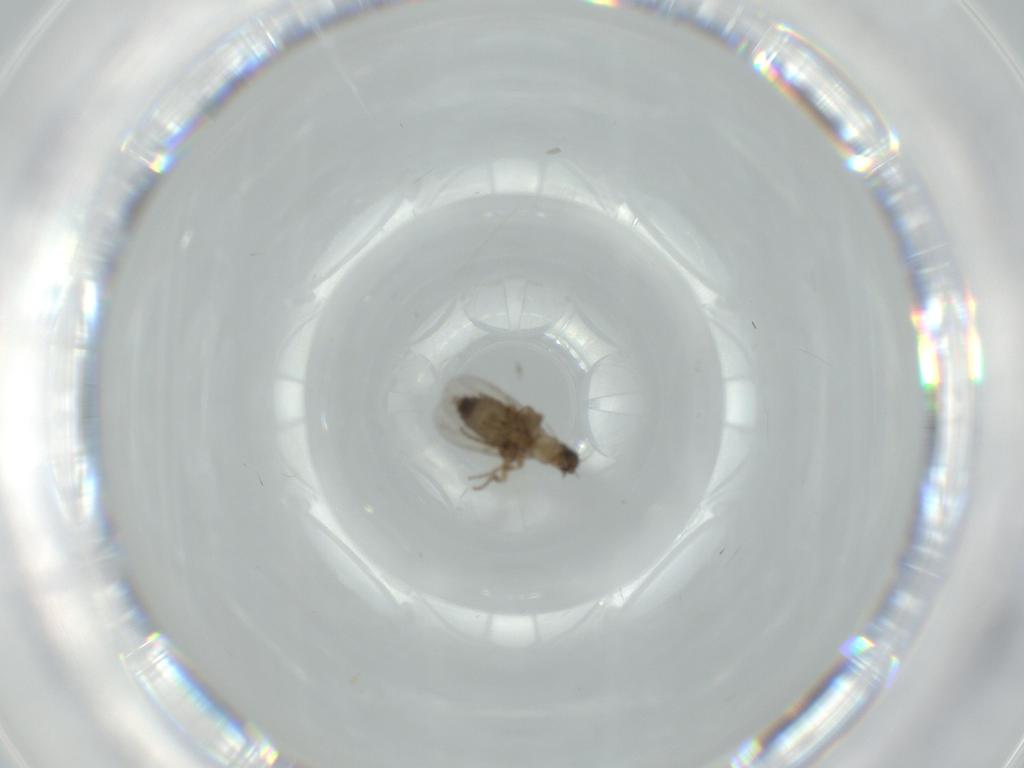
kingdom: Animalia
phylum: Arthropoda
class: Insecta
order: Diptera
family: Phoridae
